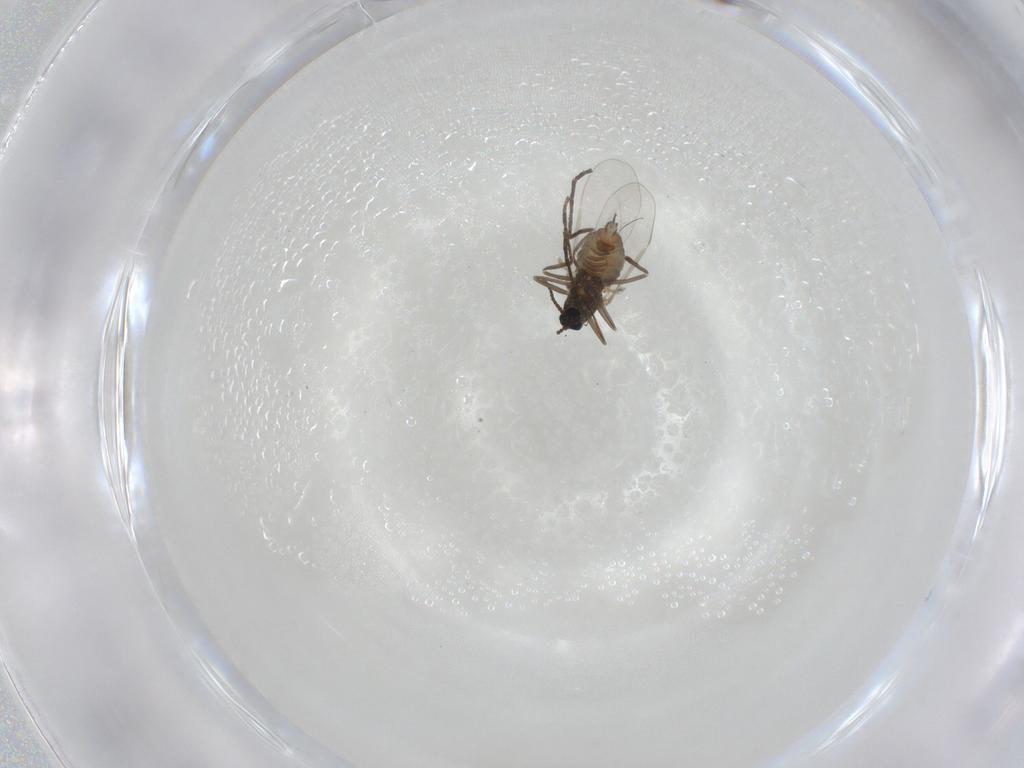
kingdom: Animalia
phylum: Arthropoda
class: Insecta
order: Diptera
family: Cecidomyiidae
